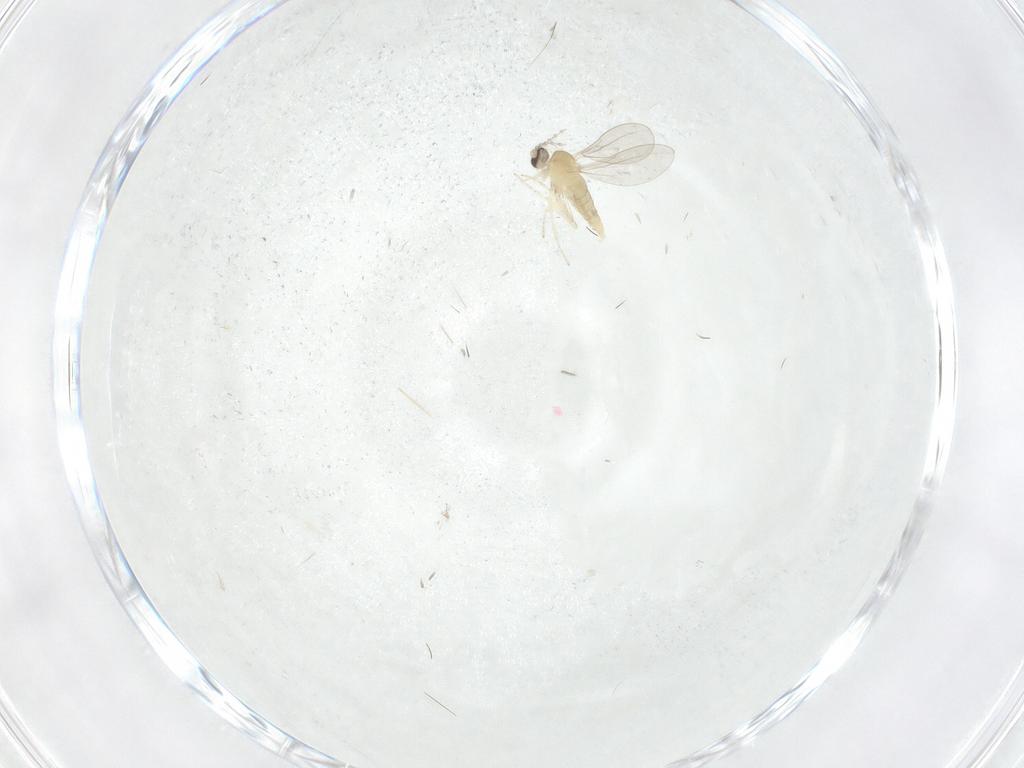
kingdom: Animalia
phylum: Arthropoda
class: Insecta
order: Diptera
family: Cecidomyiidae
